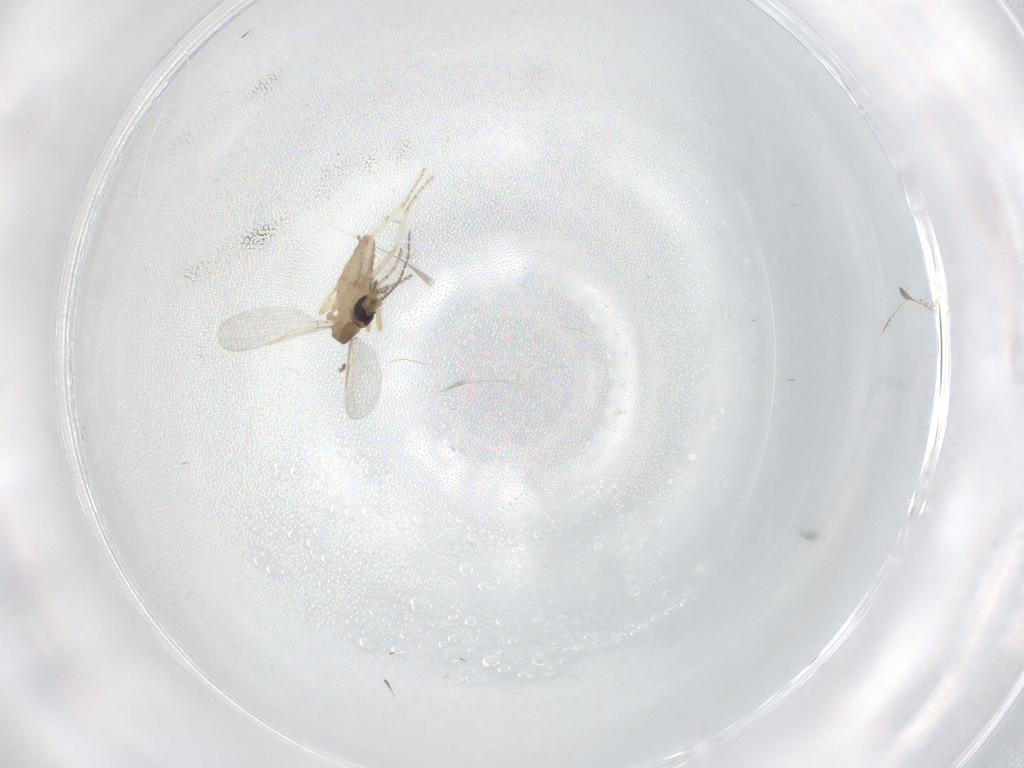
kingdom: Animalia
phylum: Arthropoda
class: Insecta
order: Diptera
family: Ceratopogonidae
